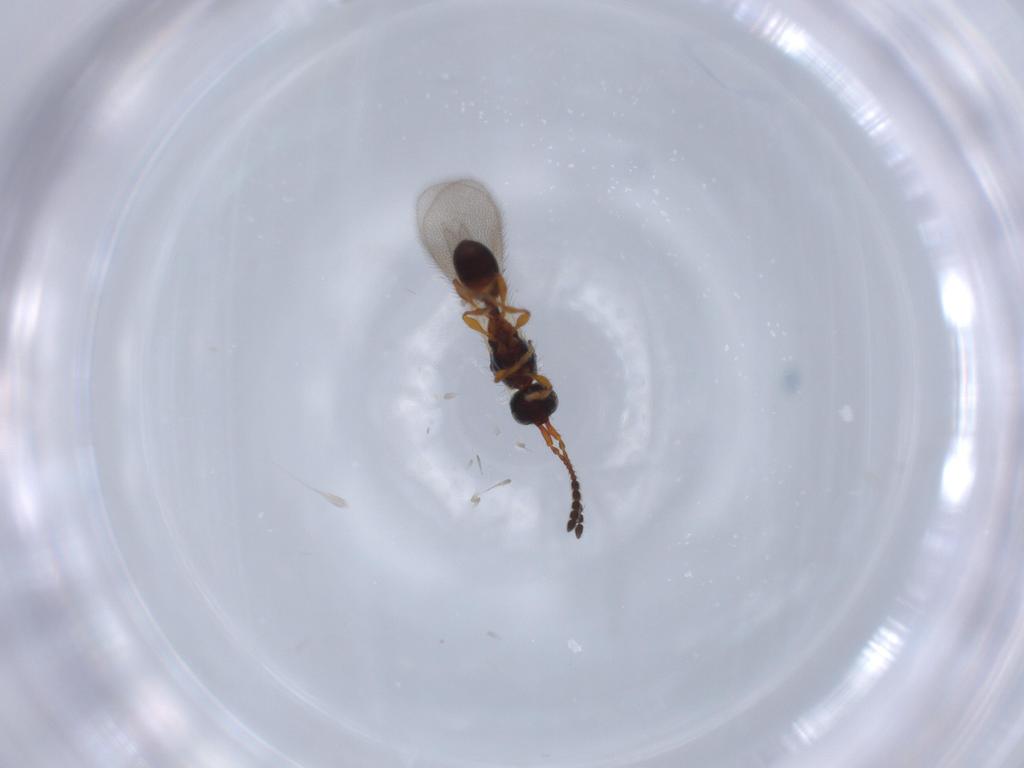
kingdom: Animalia
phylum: Arthropoda
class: Insecta
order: Hymenoptera
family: Diapriidae
